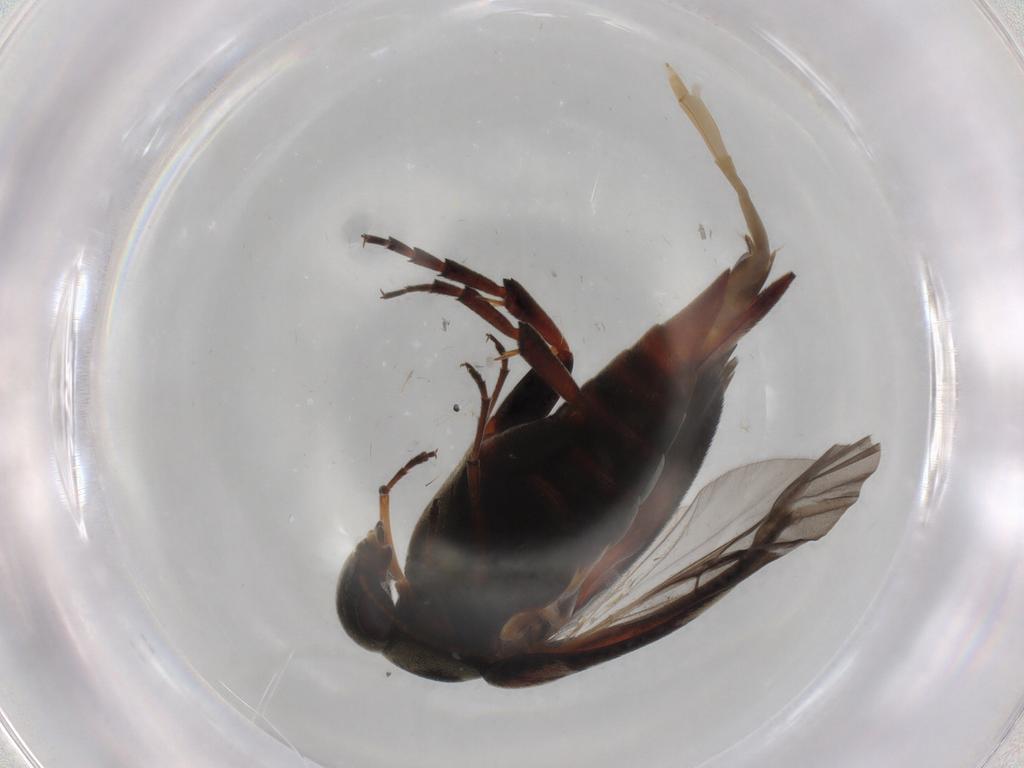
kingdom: Animalia
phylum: Arthropoda
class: Insecta
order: Coleoptera
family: Mordellidae
